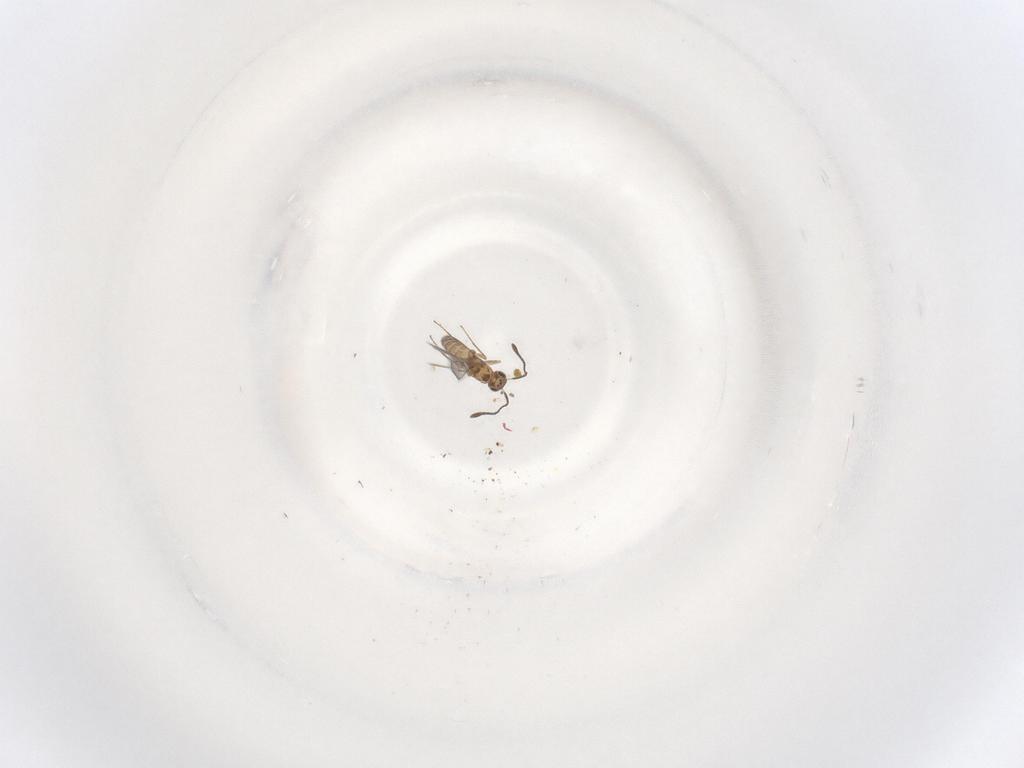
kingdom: Animalia
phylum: Arthropoda
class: Insecta
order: Hymenoptera
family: Mymaridae
